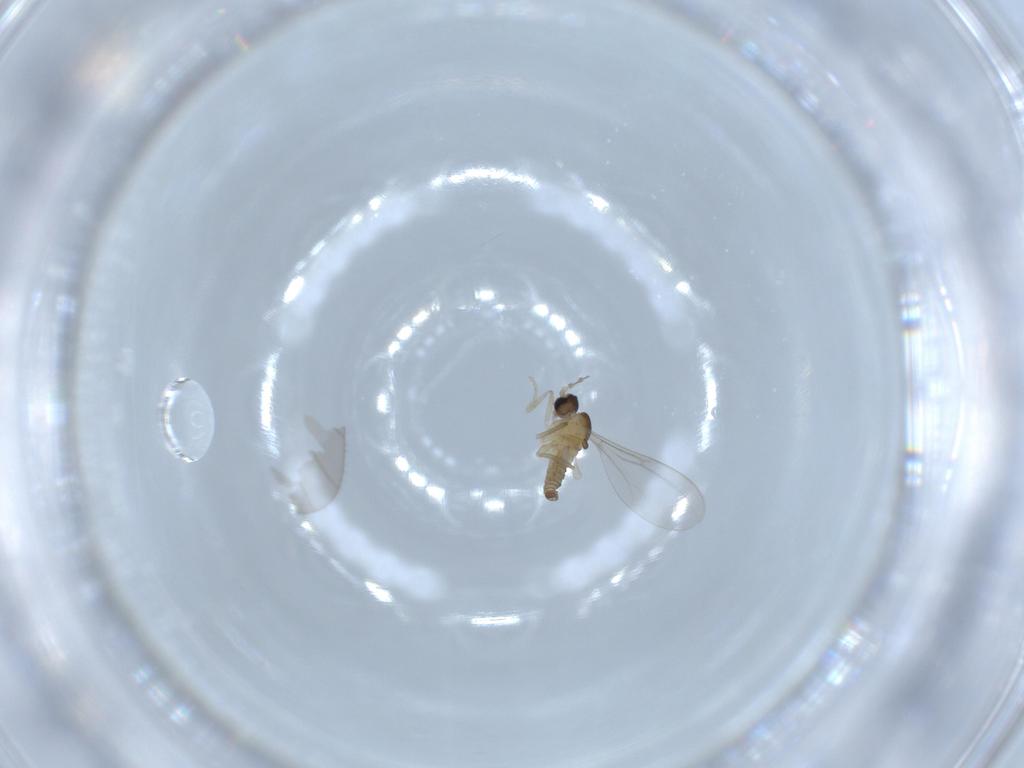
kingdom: Animalia
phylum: Arthropoda
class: Insecta
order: Diptera
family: Cecidomyiidae
